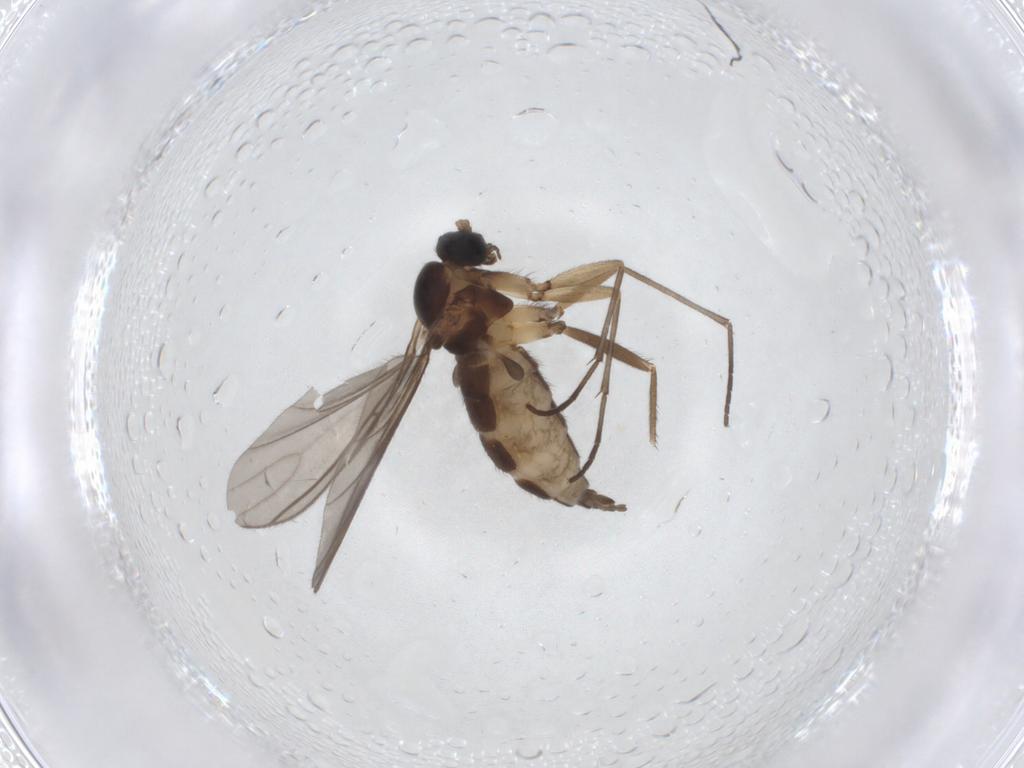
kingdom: Animalia
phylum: Arthropoda
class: Insecta
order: Diptera
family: Sciaridae
